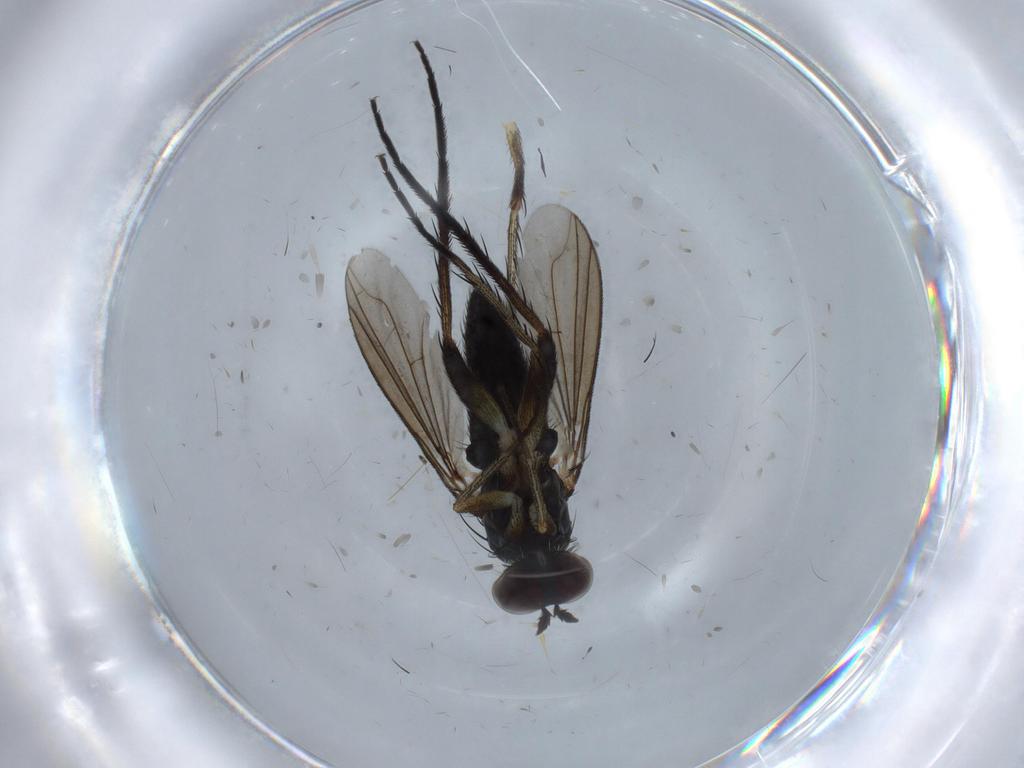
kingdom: Animalia
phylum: Arthropoda
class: Insecta
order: Diptera
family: Dolichopodidae
